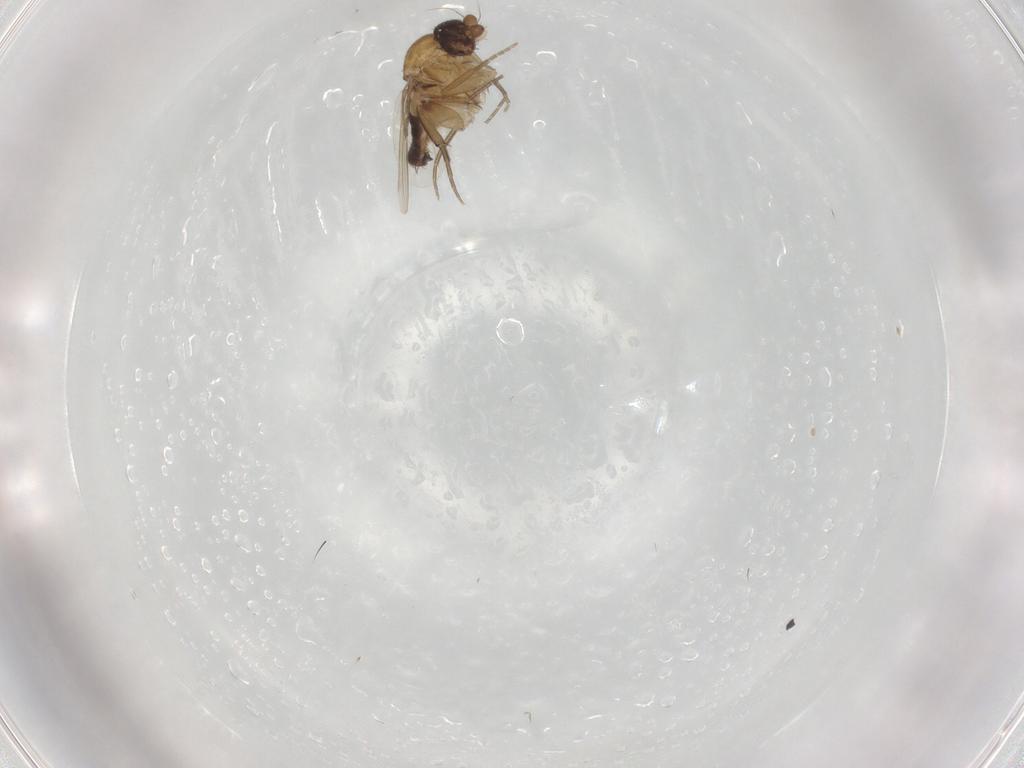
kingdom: Animalia
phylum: Arthropoda
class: Insecta
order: Diptera
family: Phoridae
